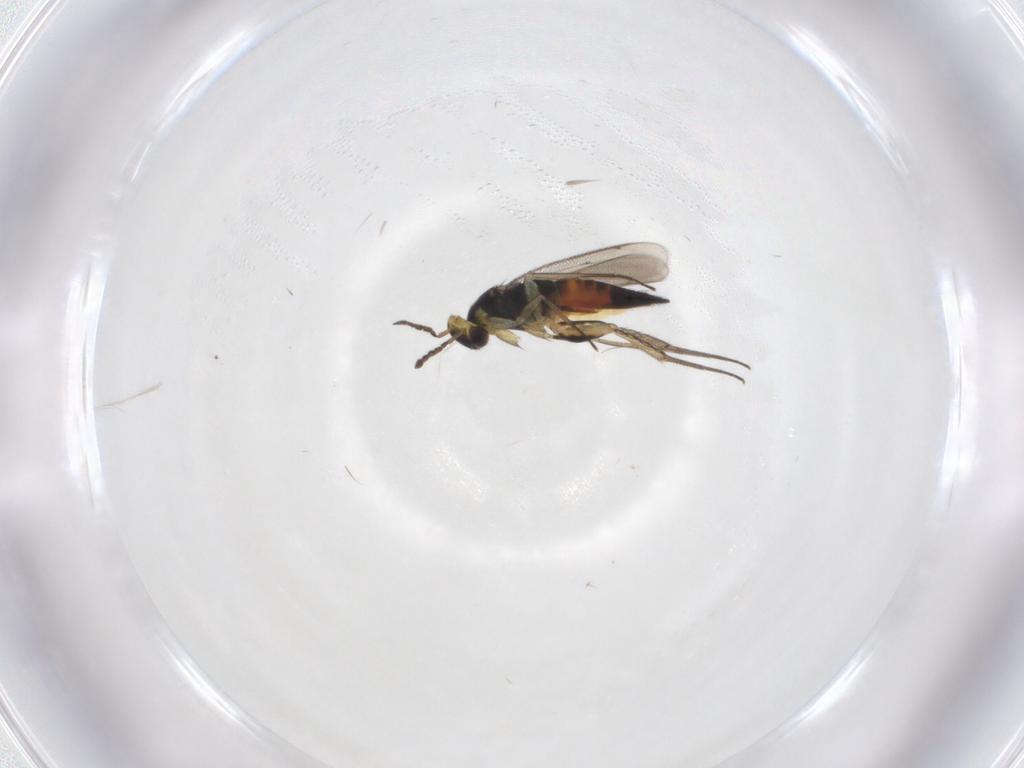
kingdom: Animalia
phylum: Arthropoda
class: Insecta
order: Hymenoptera
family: Eulophidae
